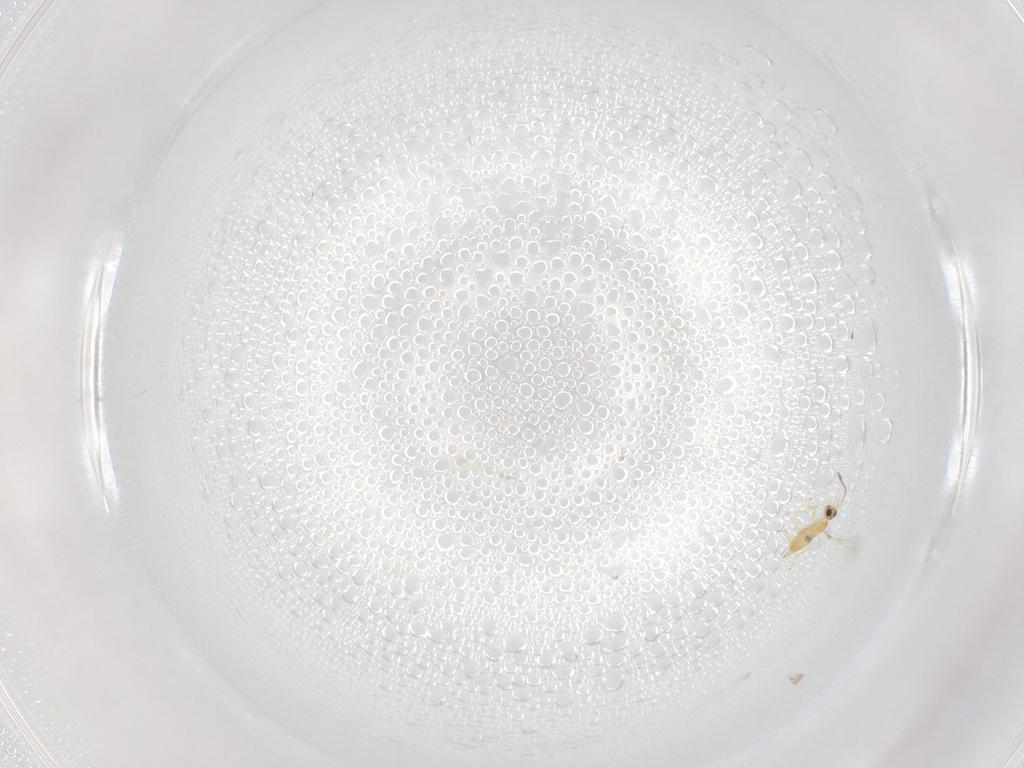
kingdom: Animalia
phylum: Arthropoda
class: Insecta
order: Hymenoptera
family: Mymaridae
